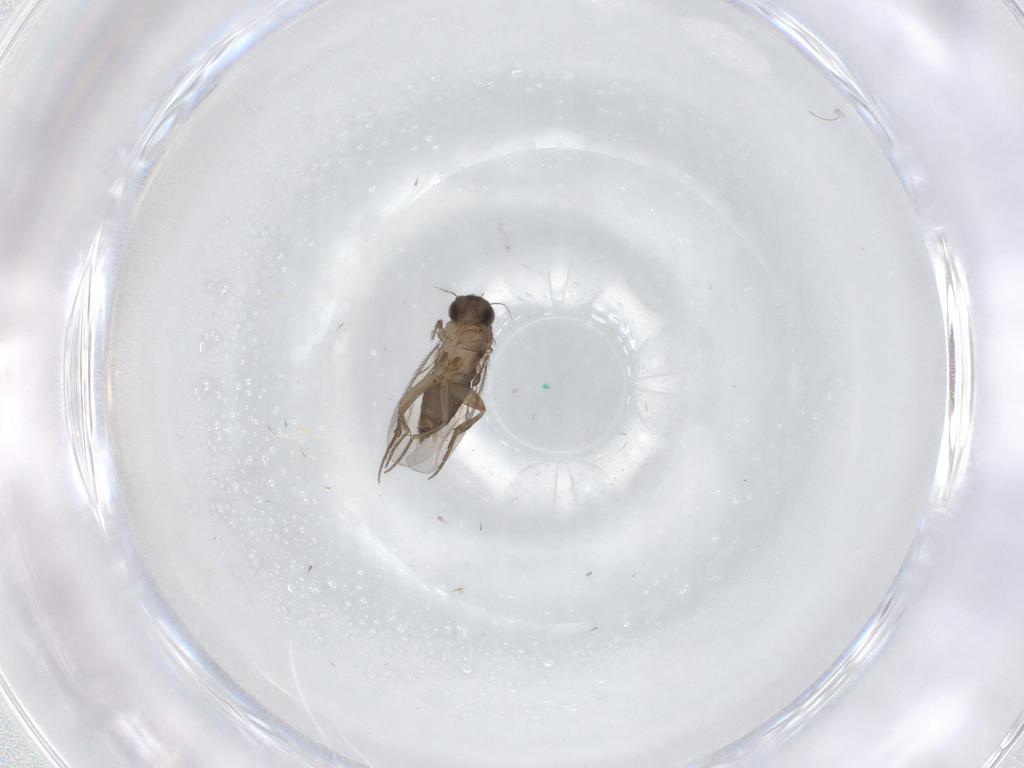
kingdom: Animalia
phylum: Arthropoda
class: Insecta
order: Diptera
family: Phoridae
